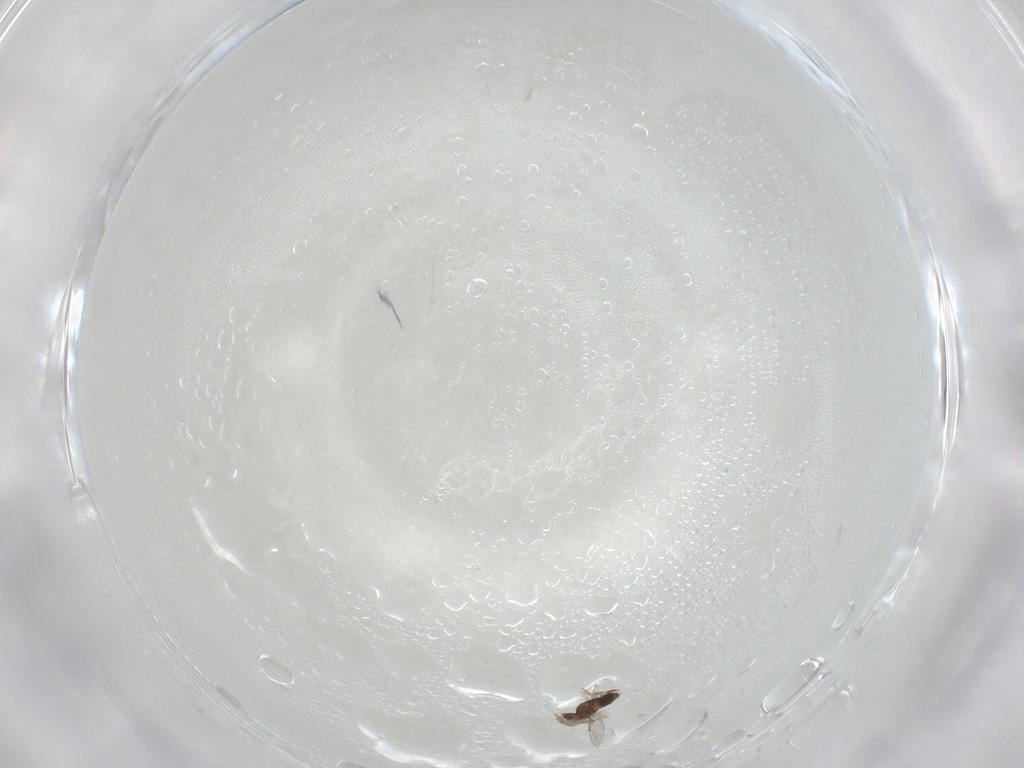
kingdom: Animalia
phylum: Arthropoda
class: Insecta
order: Hymenoptera
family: Trichogrammatidae
